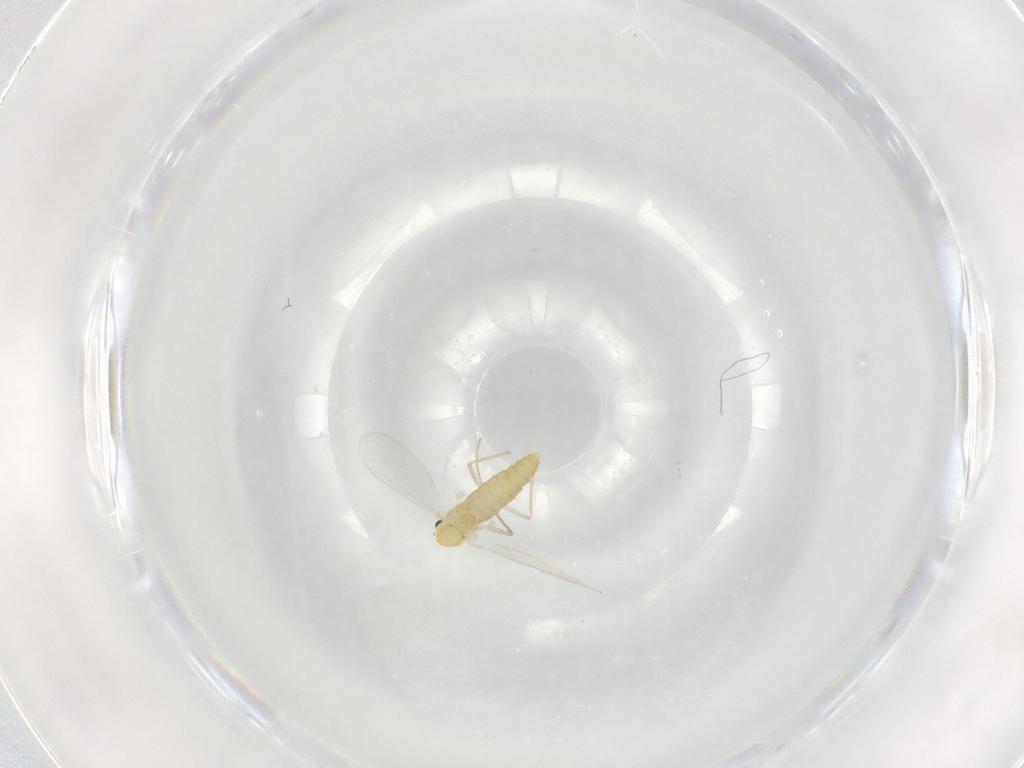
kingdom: Animalia
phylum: Arthropoda
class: Insecta
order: Diptera
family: Chironomidae
